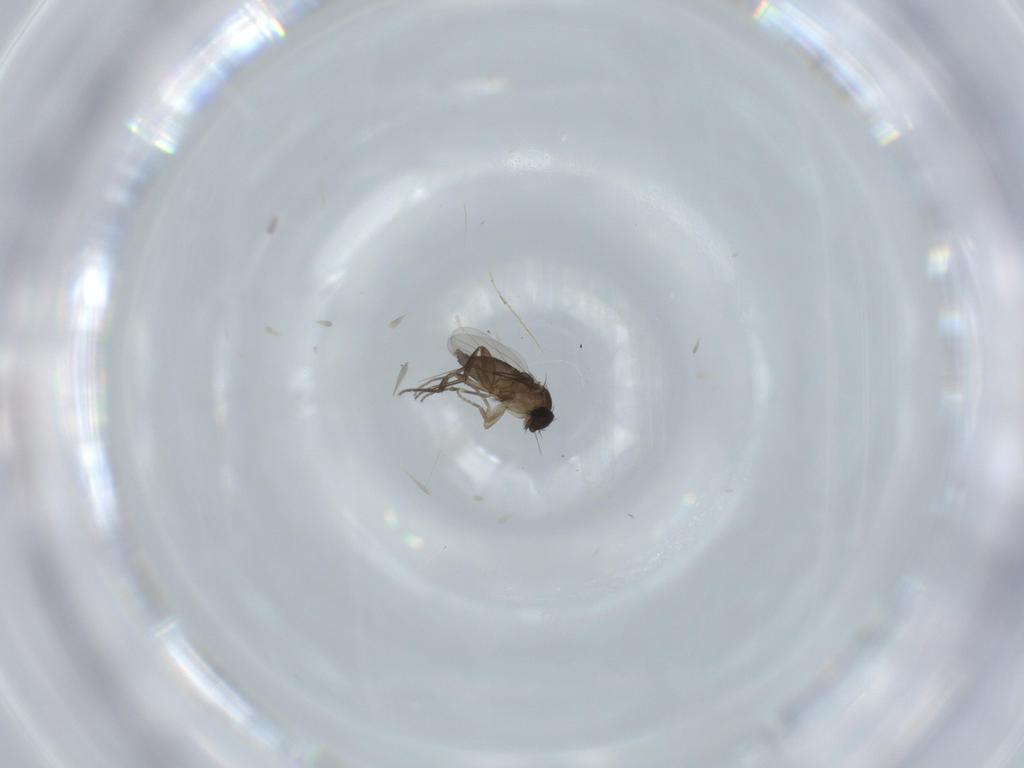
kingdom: Animalia
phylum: Arthropoda
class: Insecta
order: Diptera
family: Phoridae
